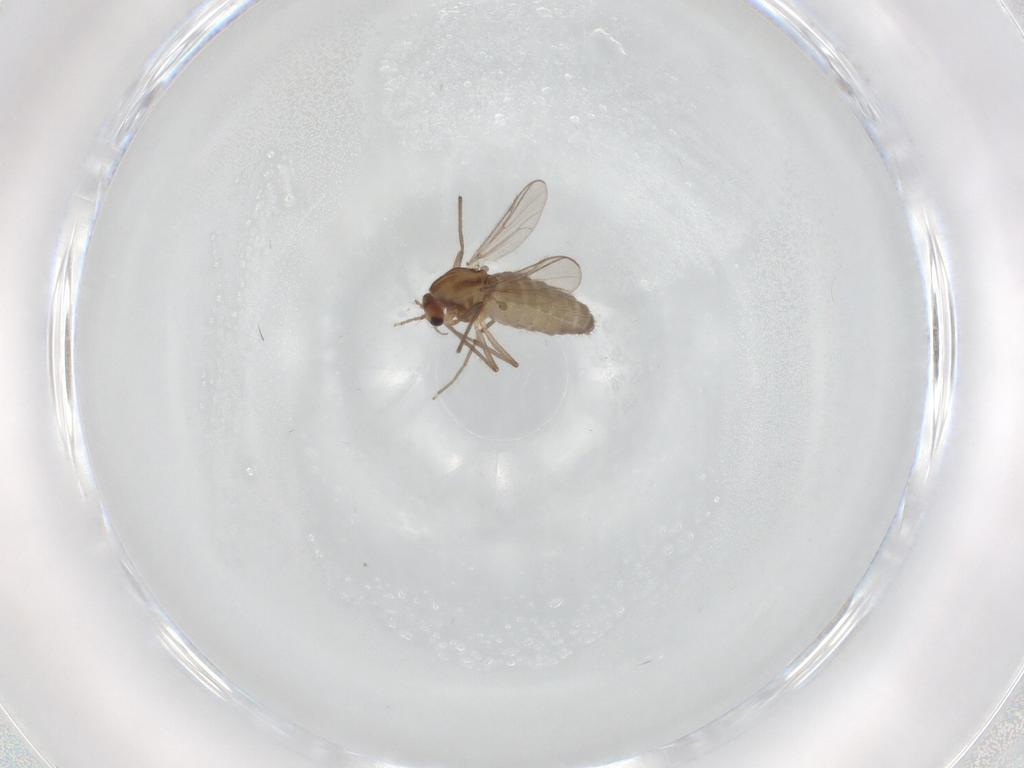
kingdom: Animalia
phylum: Arthropoda
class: Insecta
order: Diptera
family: Chironomidae
